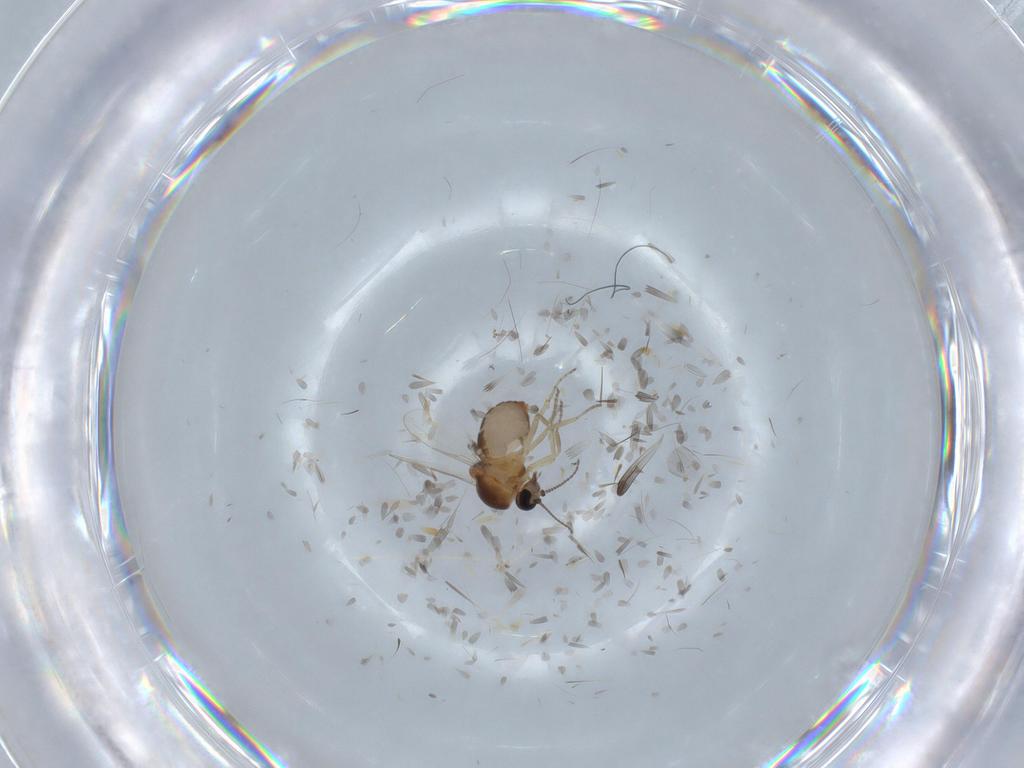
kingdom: Animalia
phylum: Arthropoda
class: Insecta
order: Diptera
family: Ceratopogonidae
